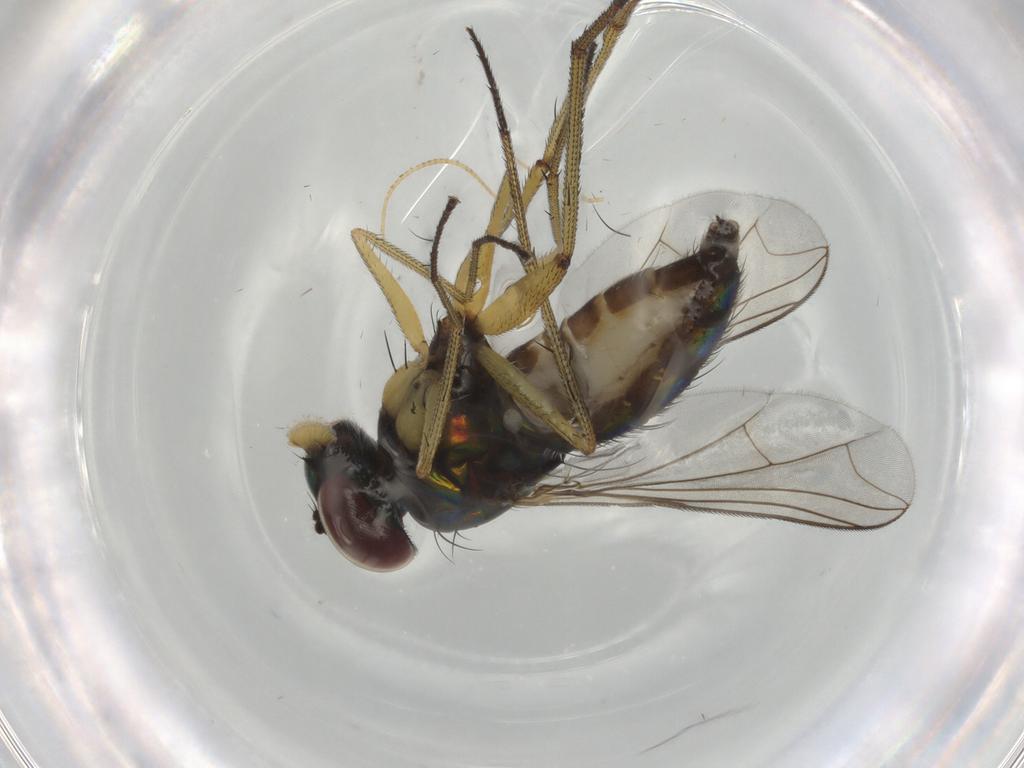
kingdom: Animalia
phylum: Arthropoda
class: Insecta
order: Diptera
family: Dolichopodidae
